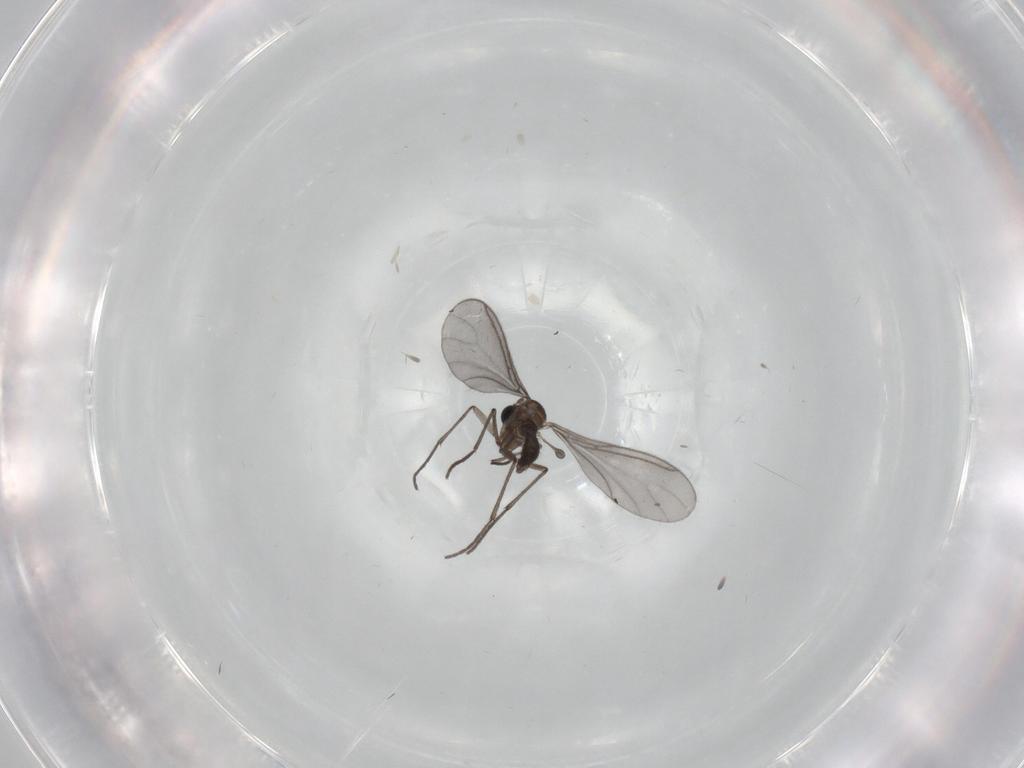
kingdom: Animalia
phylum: Arthropoda
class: Insecta
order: Diptera
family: Sciaridae
